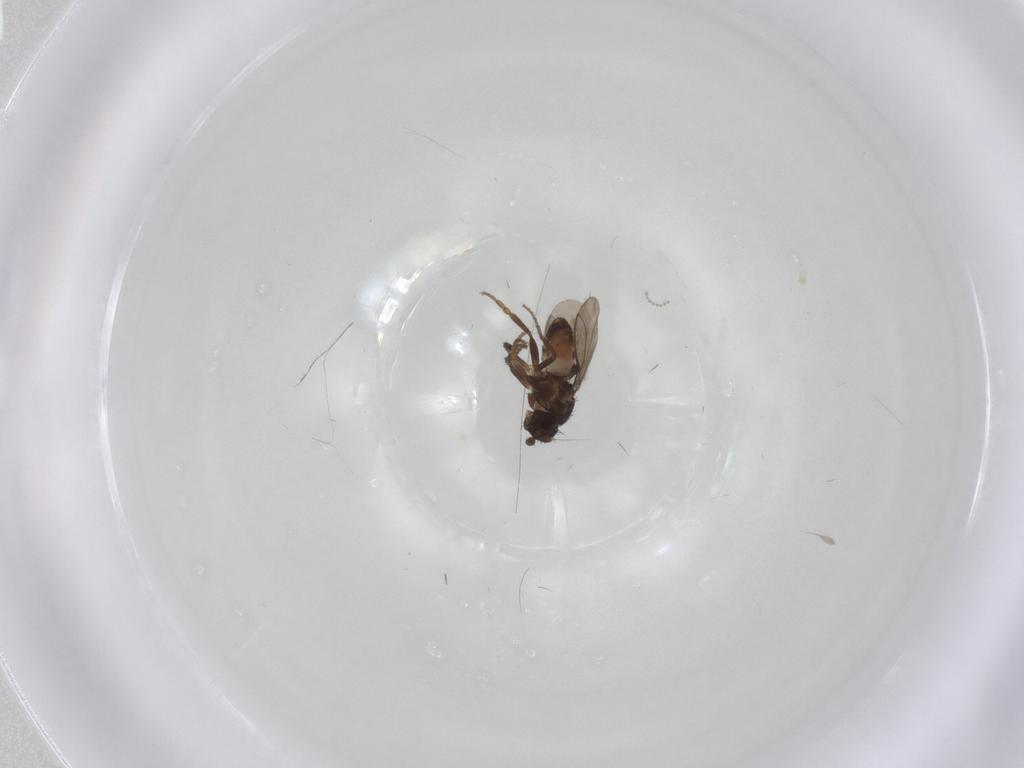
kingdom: Animalia
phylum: Arthropoda
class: Insecta
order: Diptera
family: Sphaeroceridae
